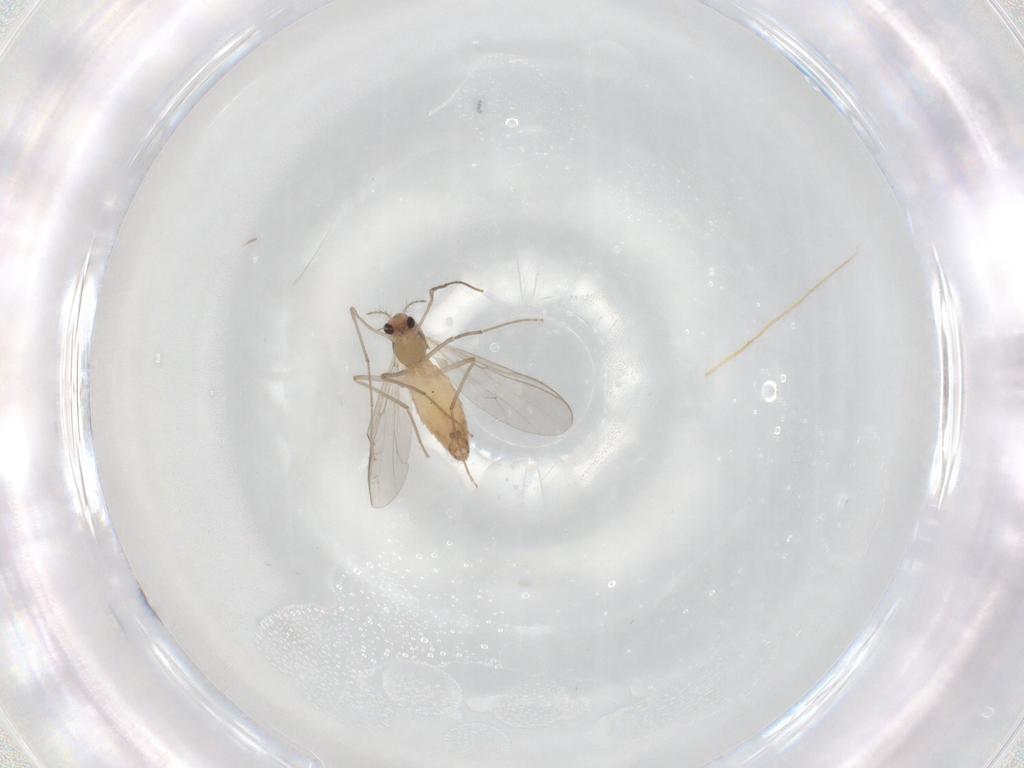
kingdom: Animalia
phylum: Arthropoda
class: Insecta
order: Diptera
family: Chironomidae
